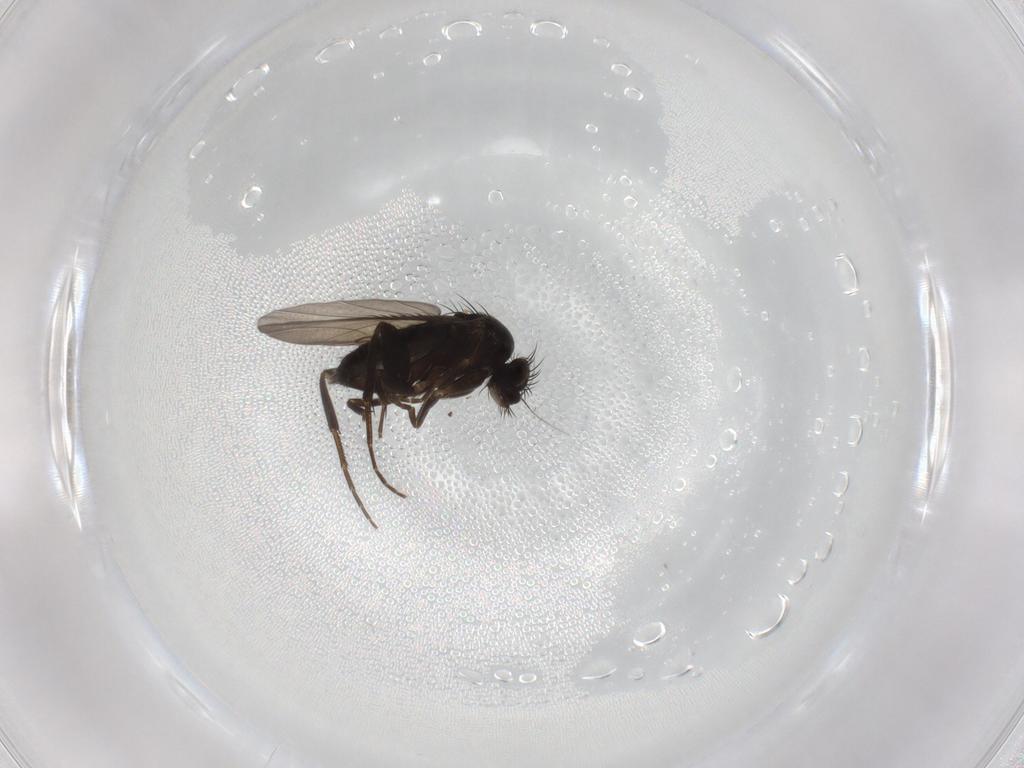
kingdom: Animalia
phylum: Arthropoda
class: Insecta
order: Diptera
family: Phoridae
